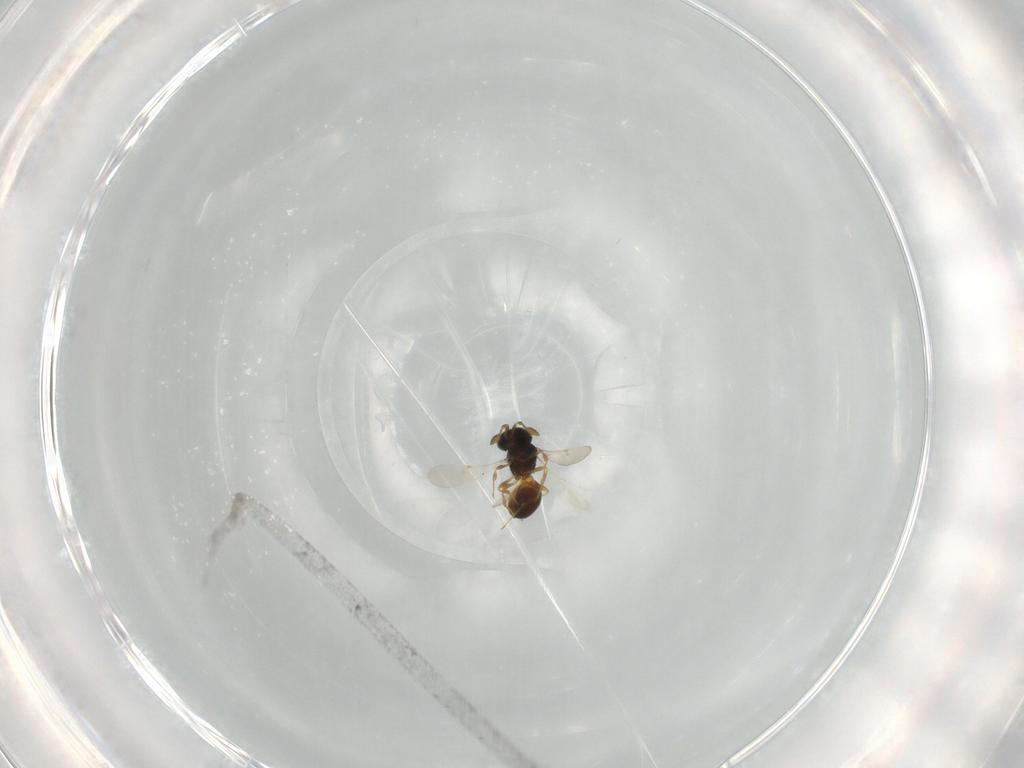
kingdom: Animalia
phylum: Arthropoda
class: Insecta
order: Hymenoptera
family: Scelionidae
